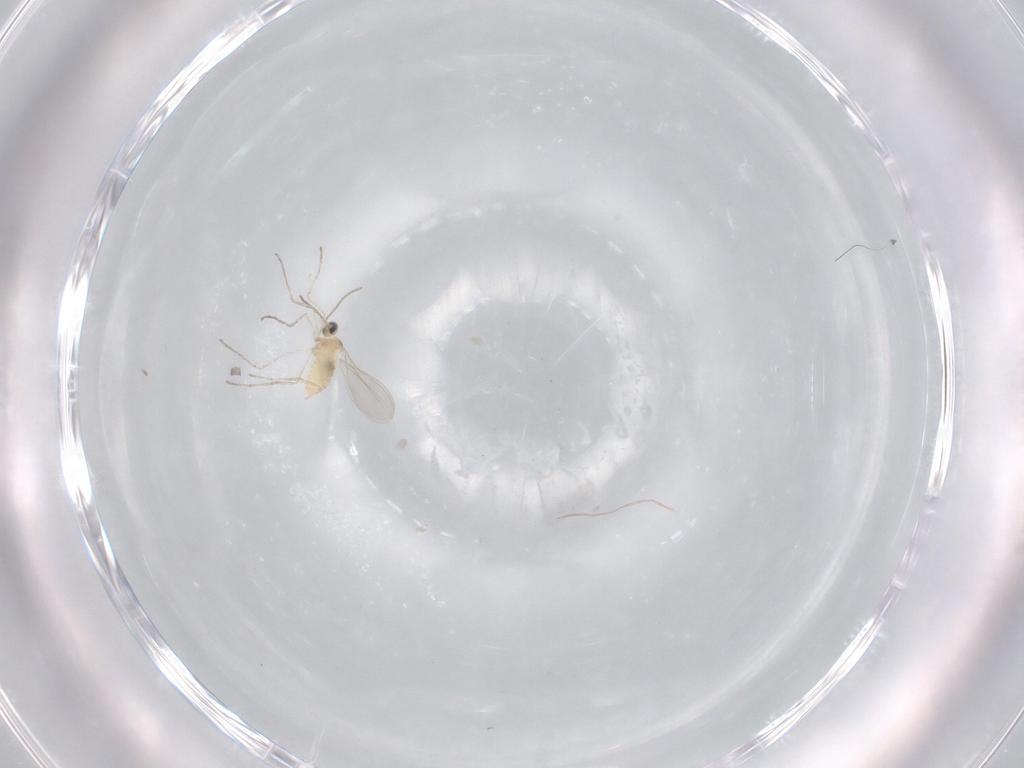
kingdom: Animalia
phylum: Arthropoda
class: Insecta
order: Diptera
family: Cecidomyiidae
